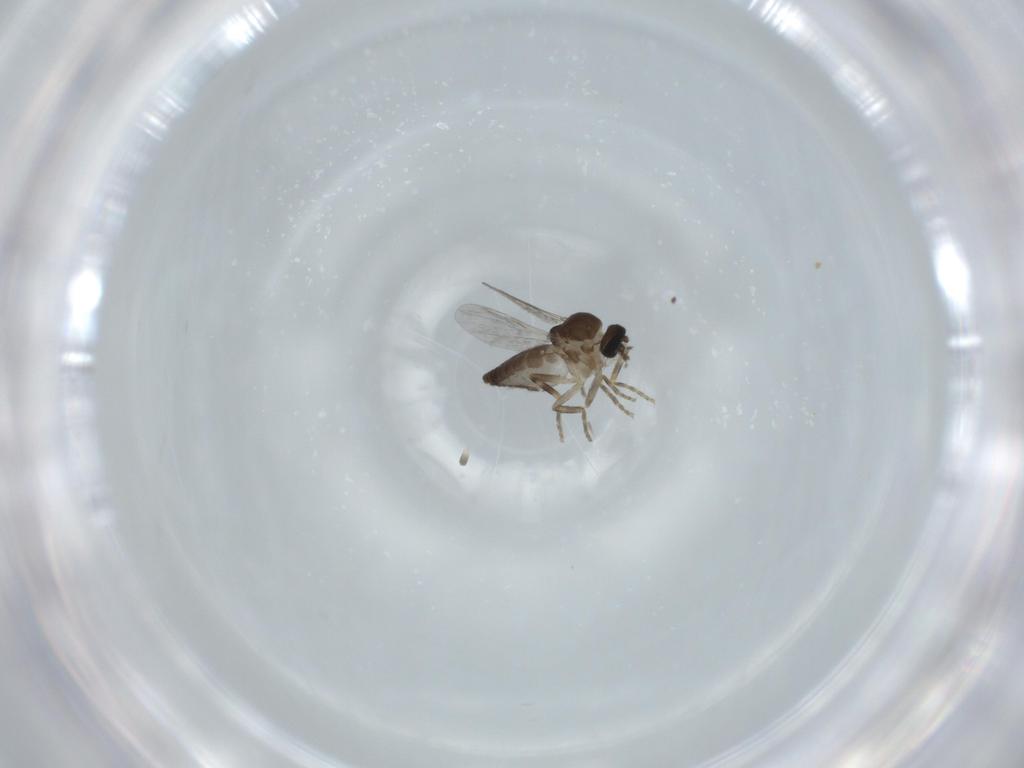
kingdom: Animalia
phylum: Arthropoda
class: Insecta
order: Diptera
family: Ceratopogonidae
